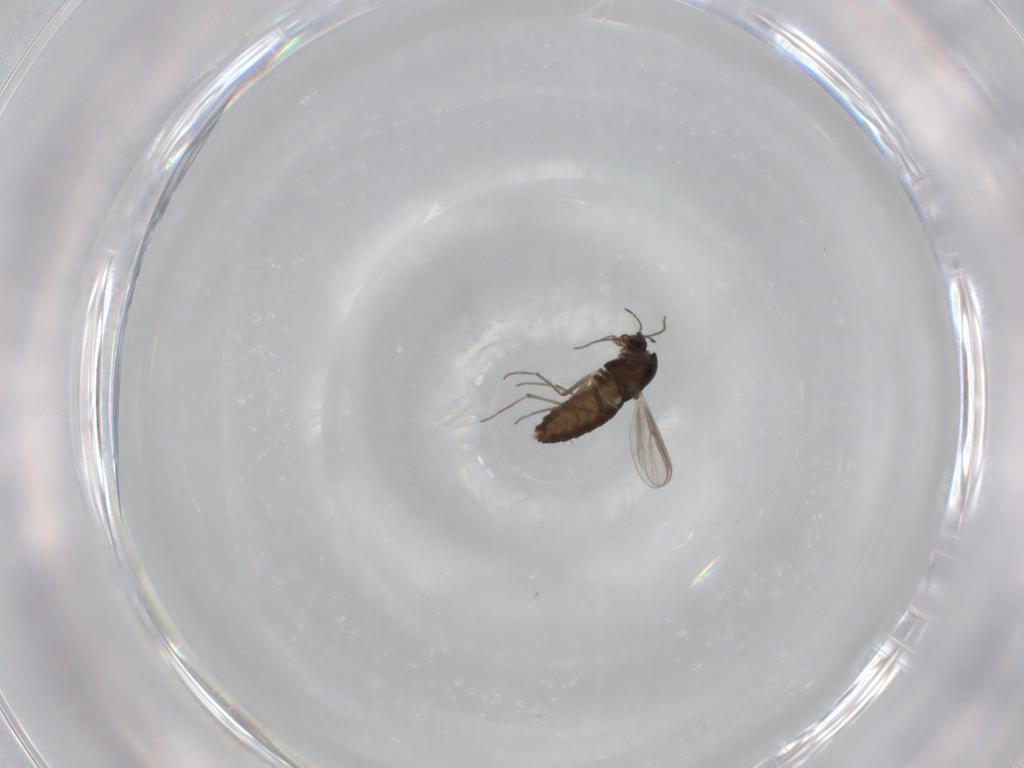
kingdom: Animalia
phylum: Arthropoda
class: Insecta
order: Diptera
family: Chironomidae
